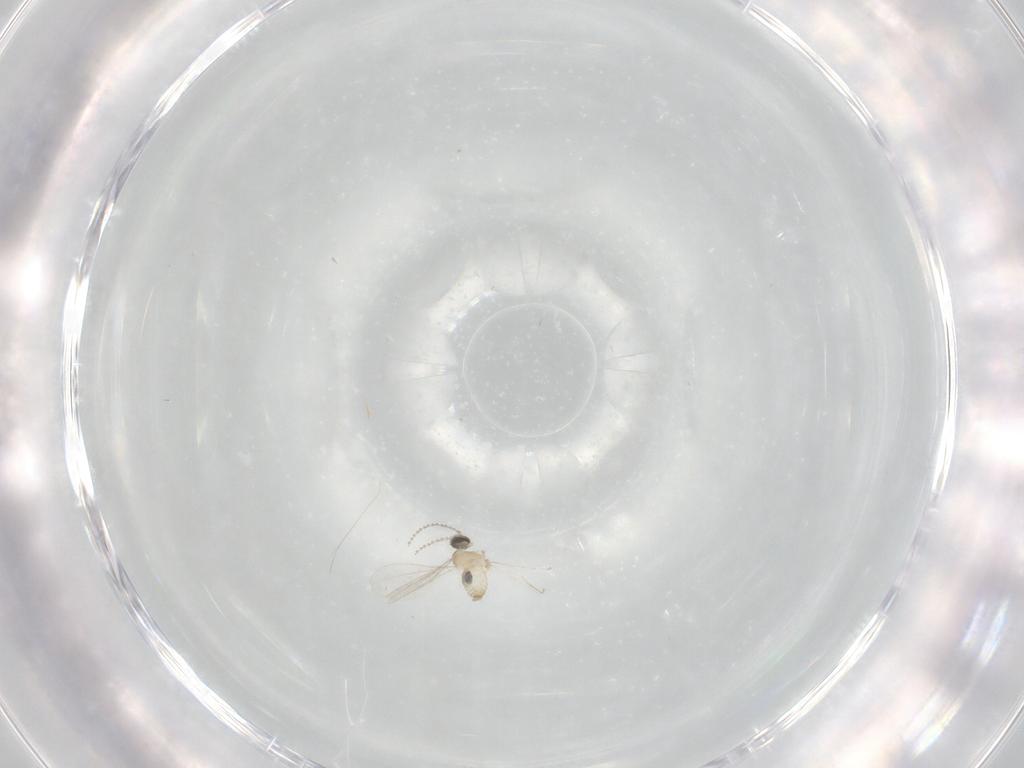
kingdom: Animalia
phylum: Arthropoda
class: Insecta
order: Diptera
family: Cecidomyiidae
